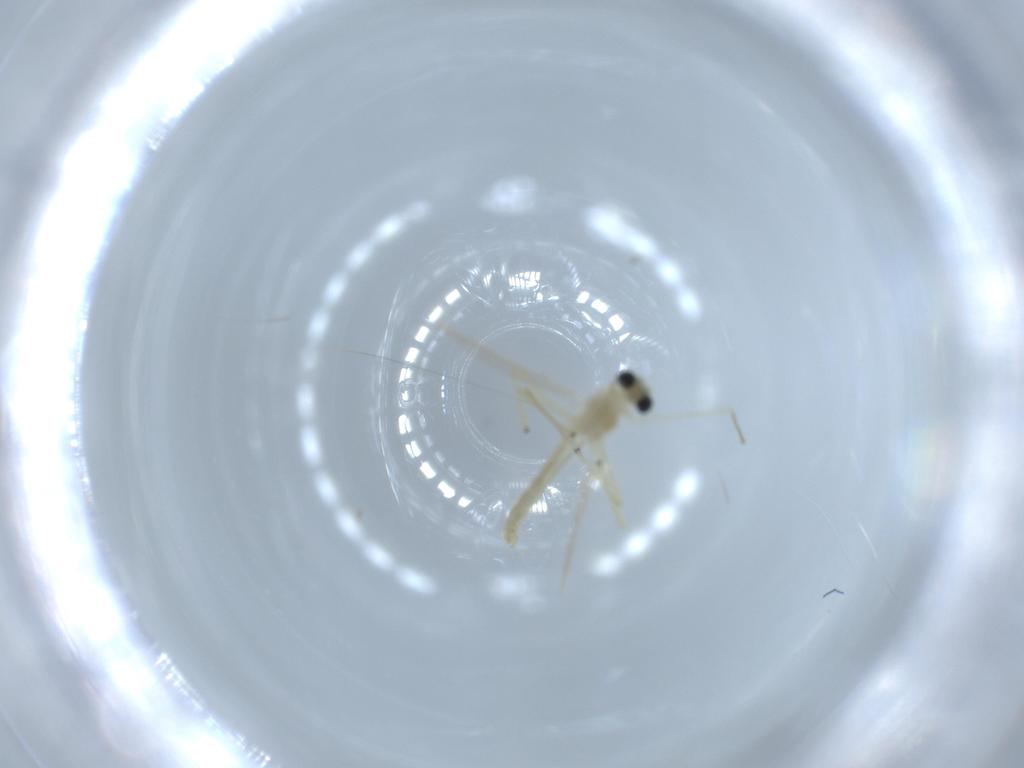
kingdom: Animalia
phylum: Arthropoda
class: Insecta
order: Diptera
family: Chironomidae
